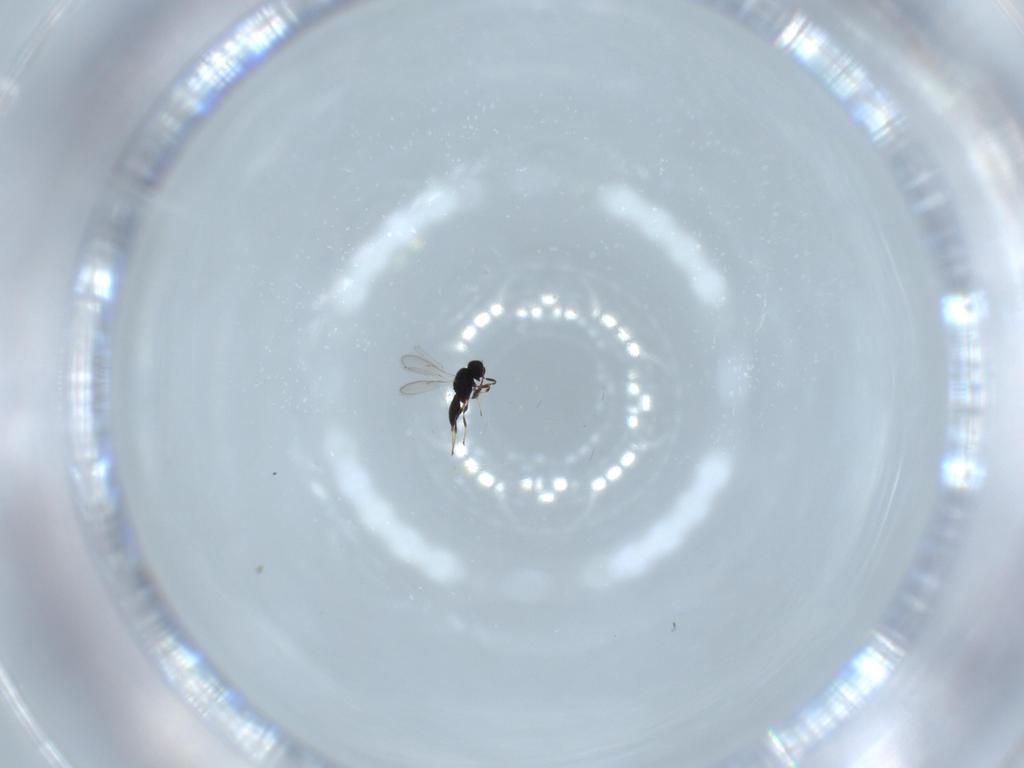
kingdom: Animalia
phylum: Arthropoda
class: Insecta
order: Hymenoptera
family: Scelionidae
